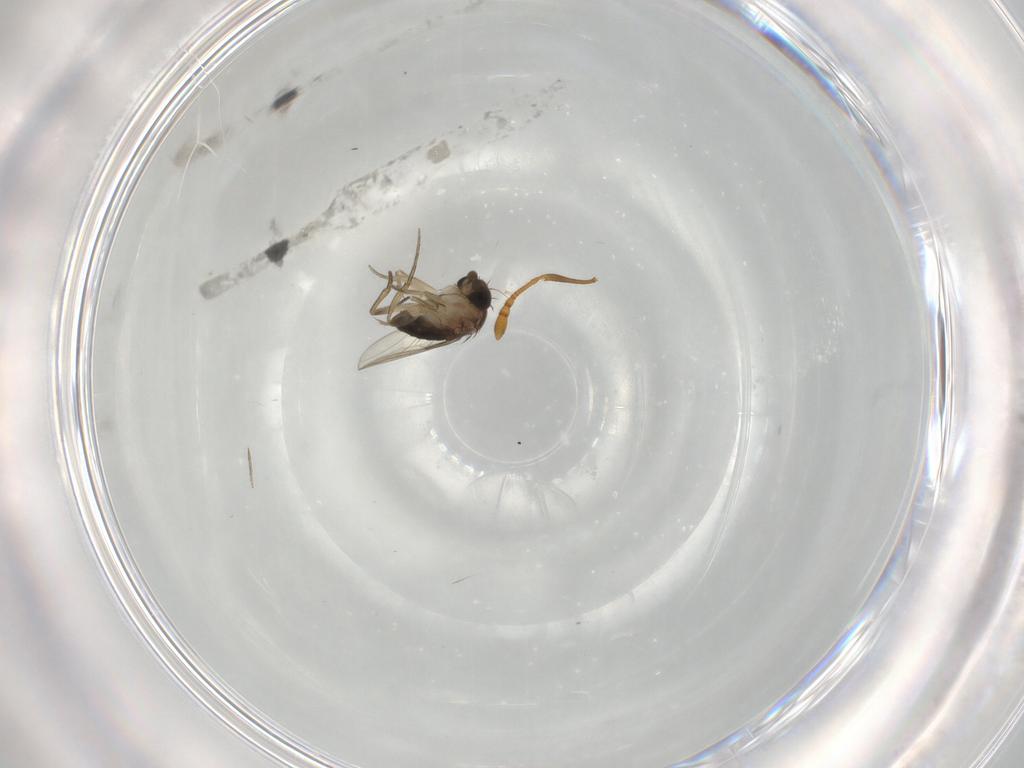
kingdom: Animalia
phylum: Arthropoda
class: Insecta
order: Diptera
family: Phoridae
